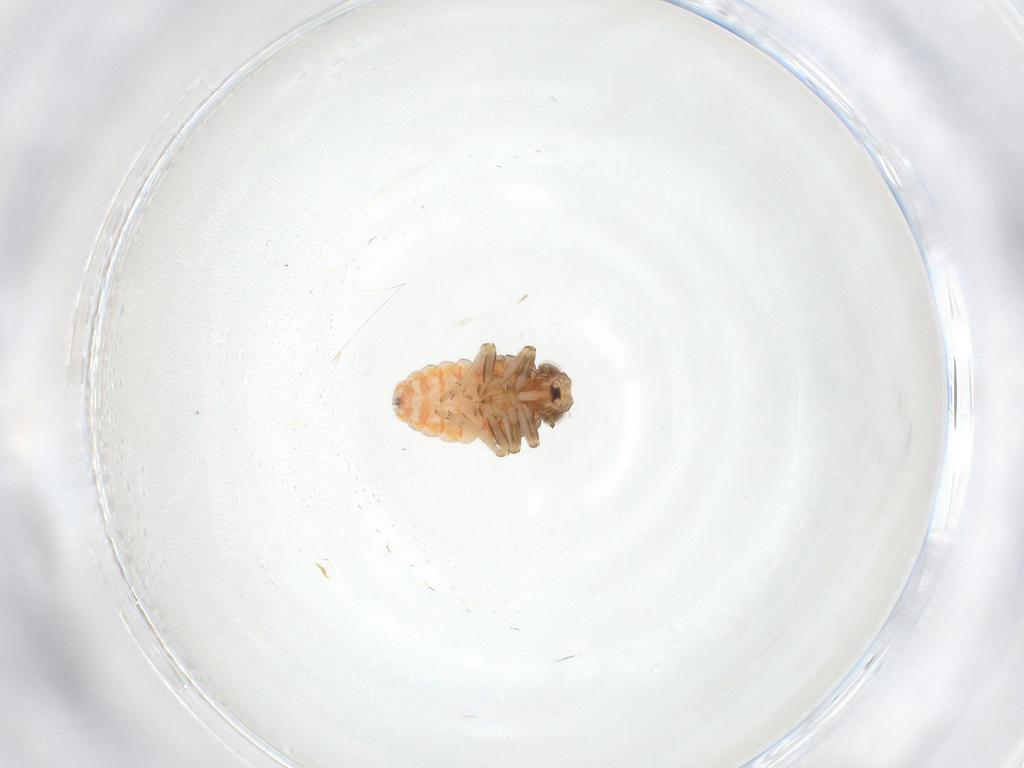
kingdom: Animalia
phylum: Arthropoda
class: Insecta
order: Hemiptera
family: Issidae
